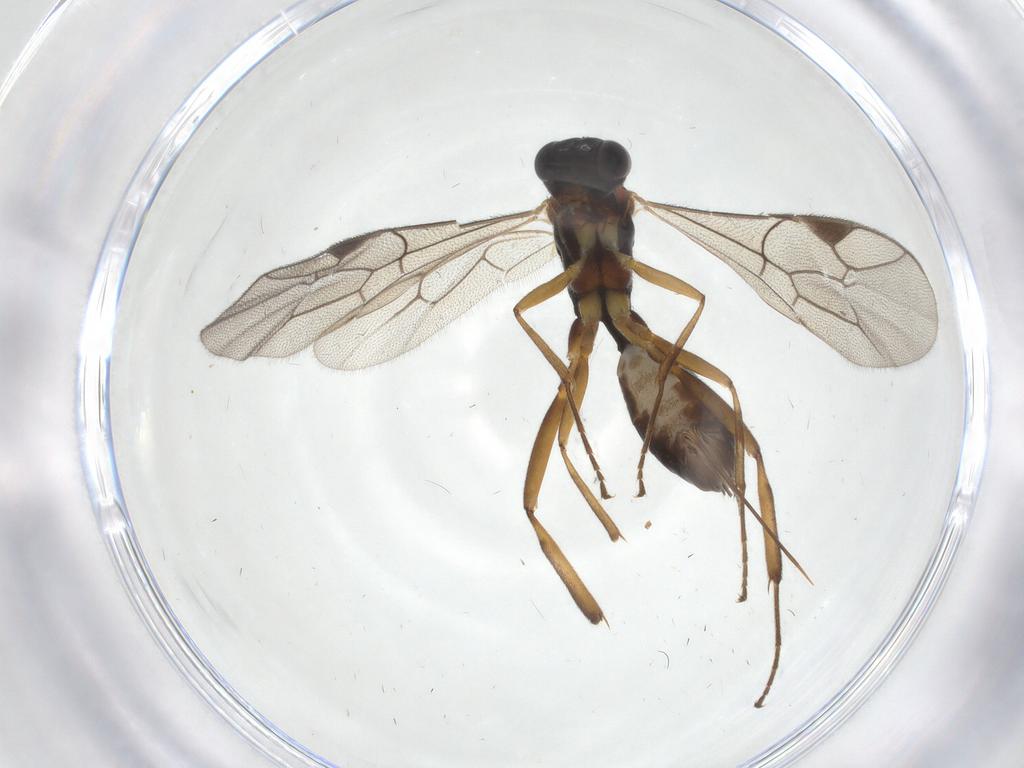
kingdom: Animalia
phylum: Arthropoda
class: Insecta
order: Hymenoptera
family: Ichneumonidae
